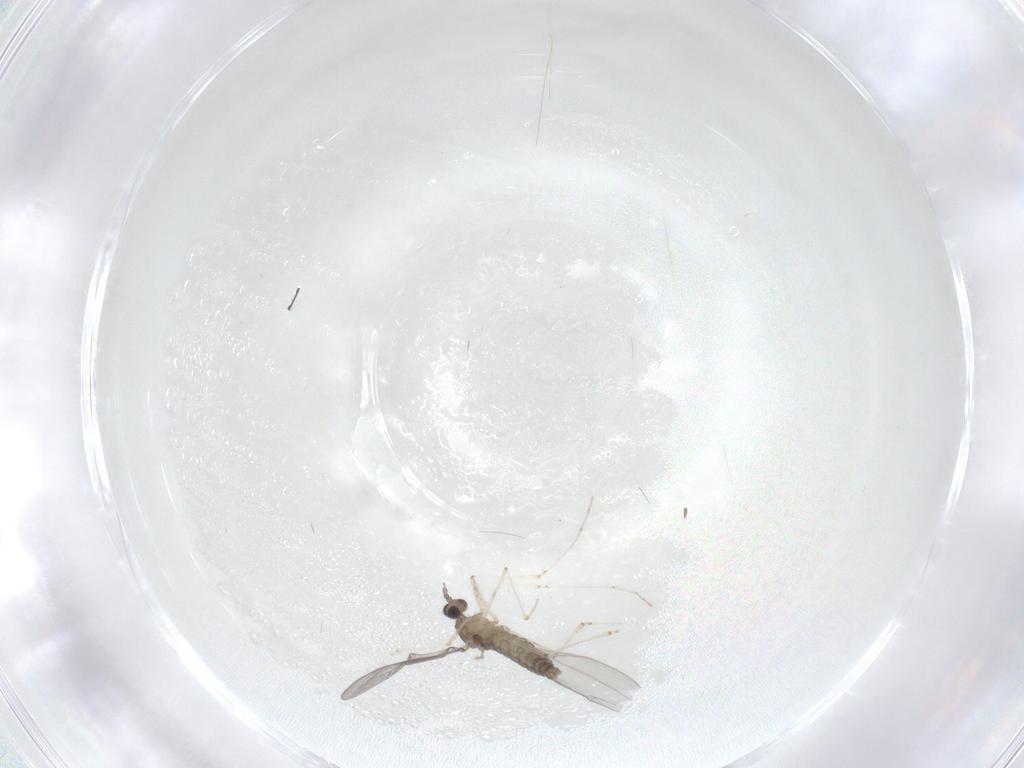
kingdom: Animalia
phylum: Arthropoda
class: Insecta
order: Diptera
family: Cecidomyiidae
